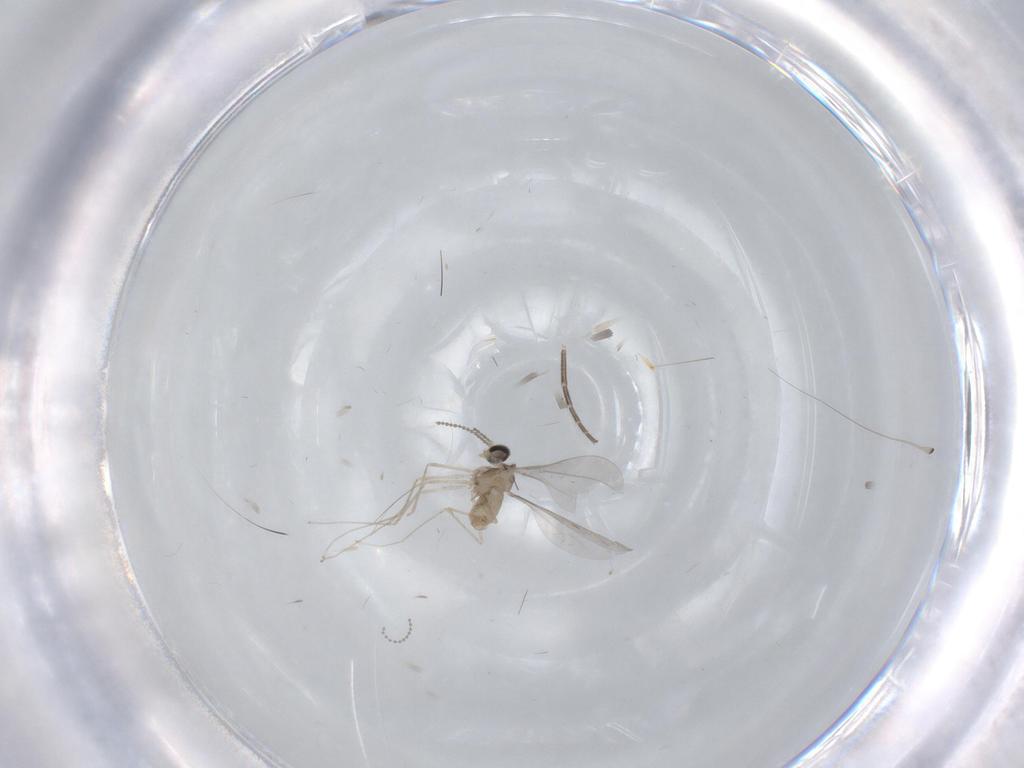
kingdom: Animalia
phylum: Arthropoda
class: Insecta
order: Diptera
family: Cecidomyiidae
